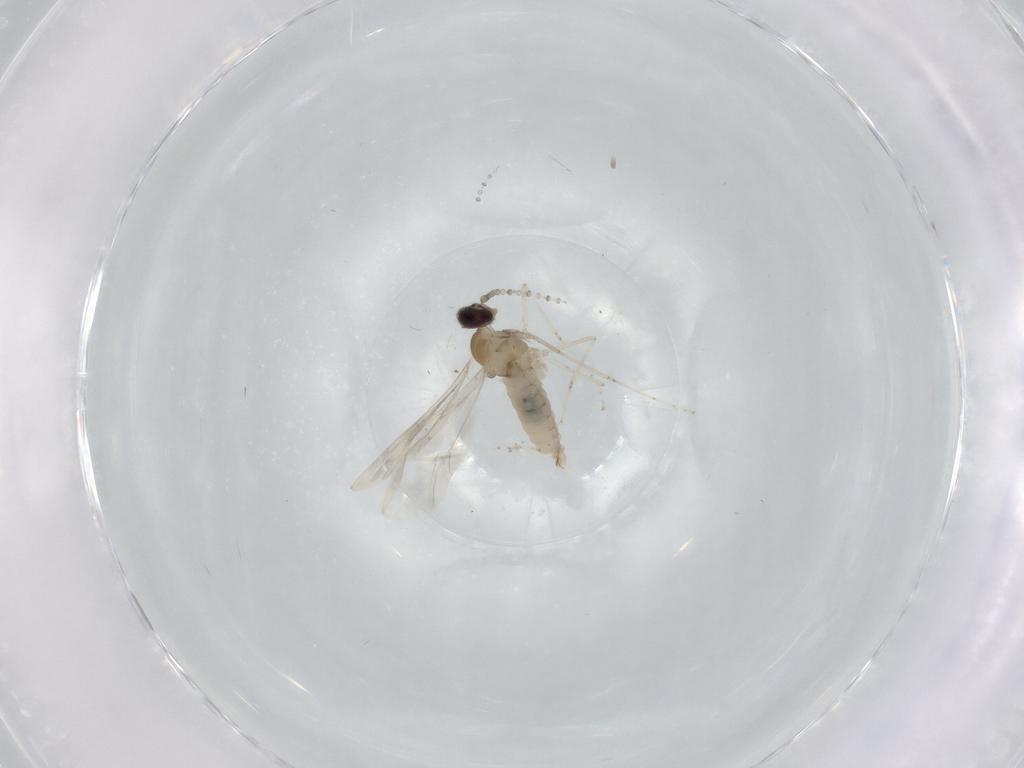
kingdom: Animalia
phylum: Arthropoda
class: Insecta
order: Diptera
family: Cecidomyiidae
